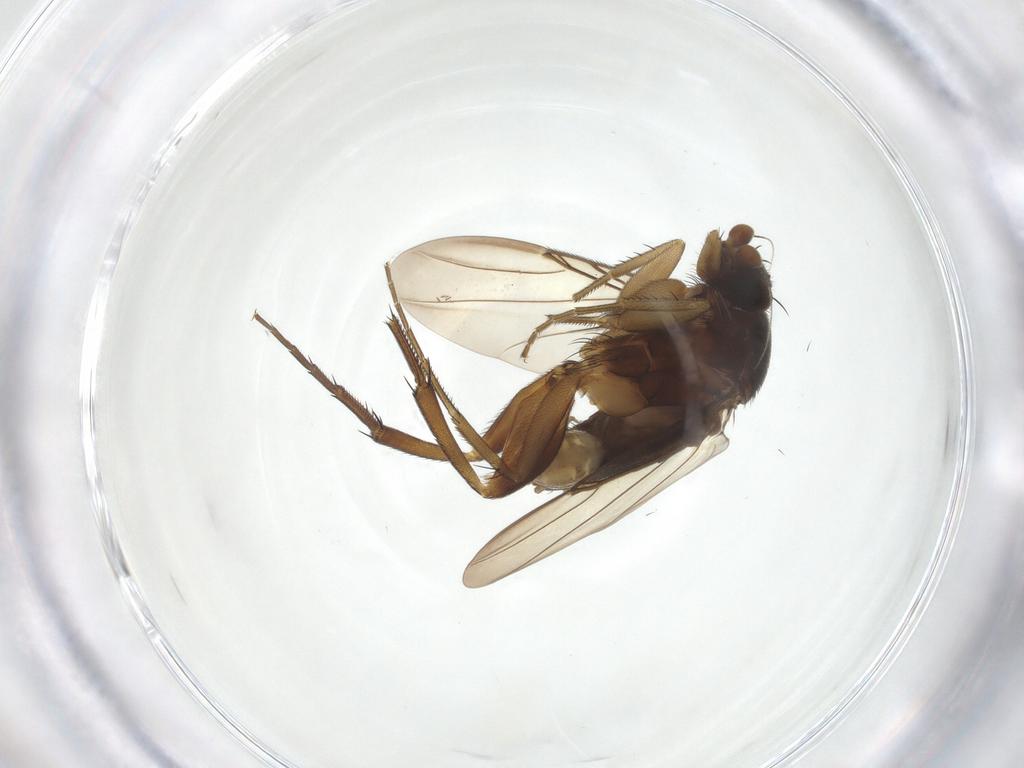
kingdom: Animalia
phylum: Arthropoda
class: Insecta
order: Diptera
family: Phoridae
